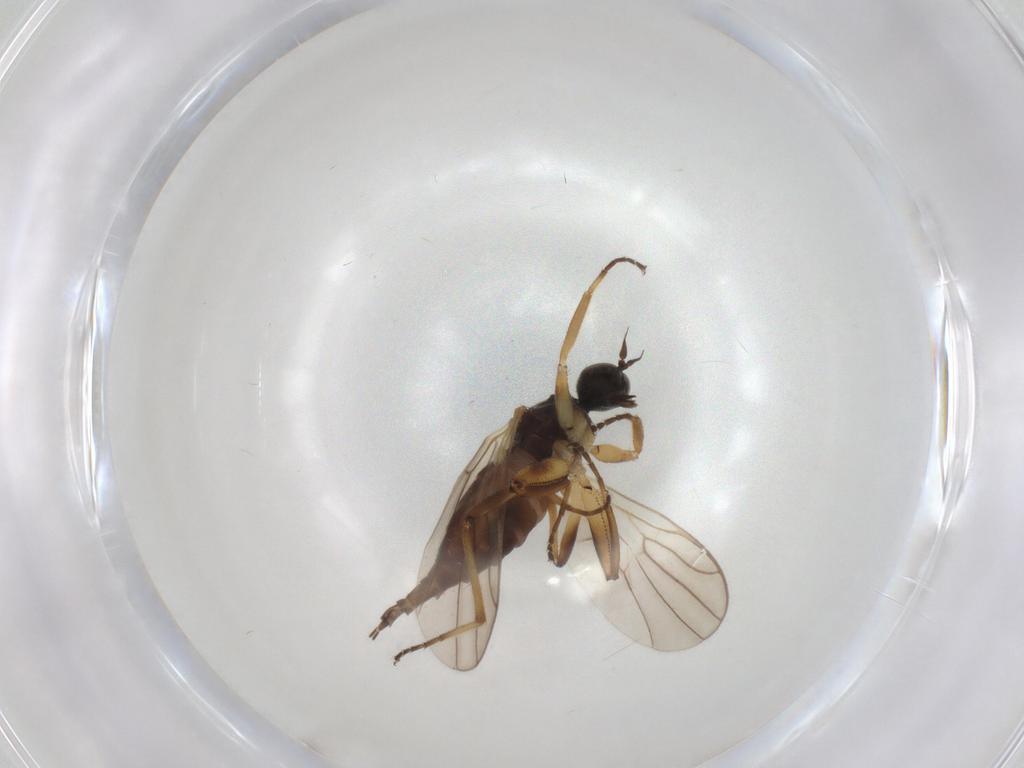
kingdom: Animalia
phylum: Arthropoda
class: Insecta
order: Diptera
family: Hybotidae
